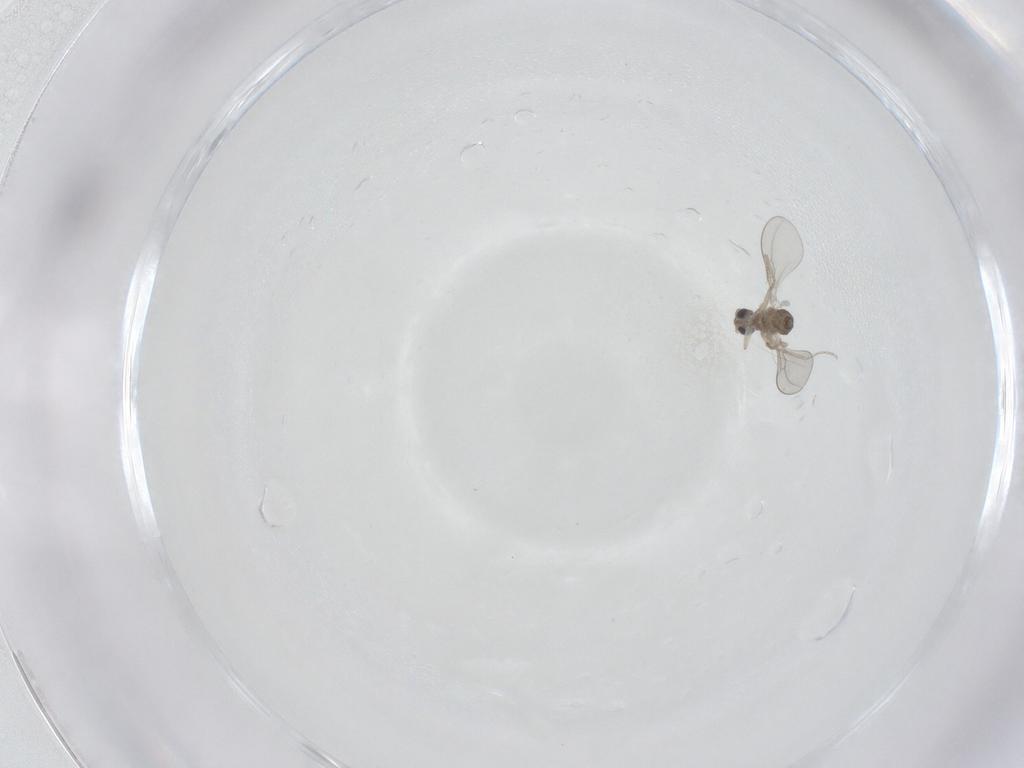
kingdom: Animalia
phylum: Arthropoda
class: Insecta
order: Diptera
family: Cecidomyiidae
